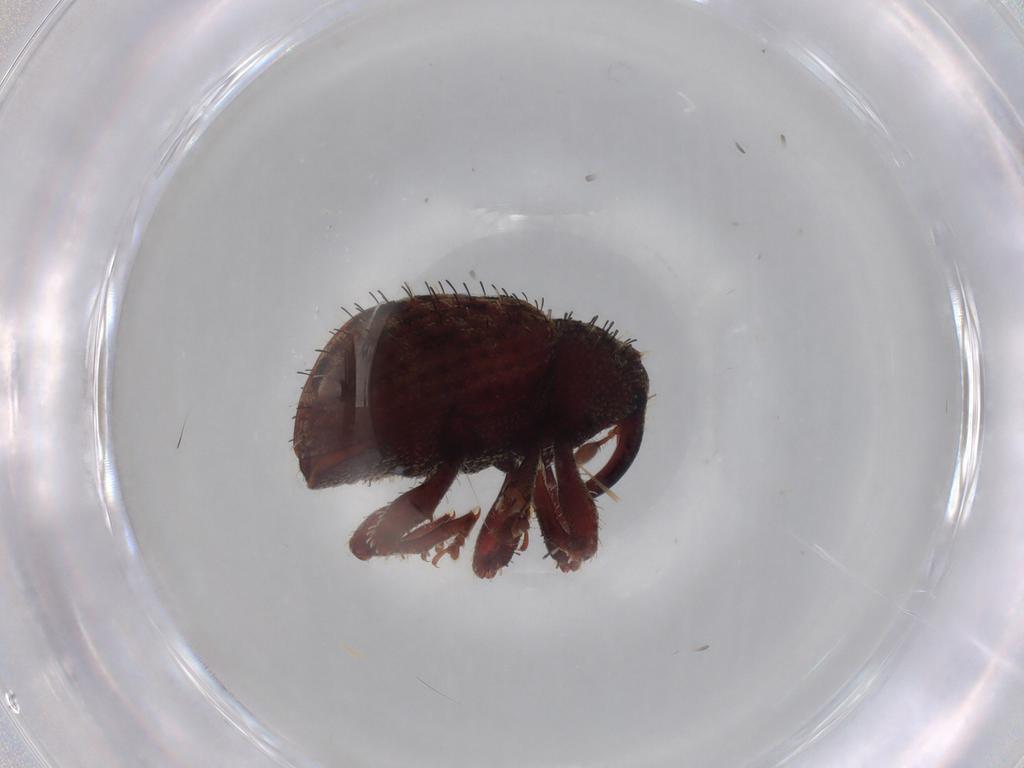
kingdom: Animalia
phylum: Arthropoda
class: Insecta
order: Coleoptera
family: Curculionidae
